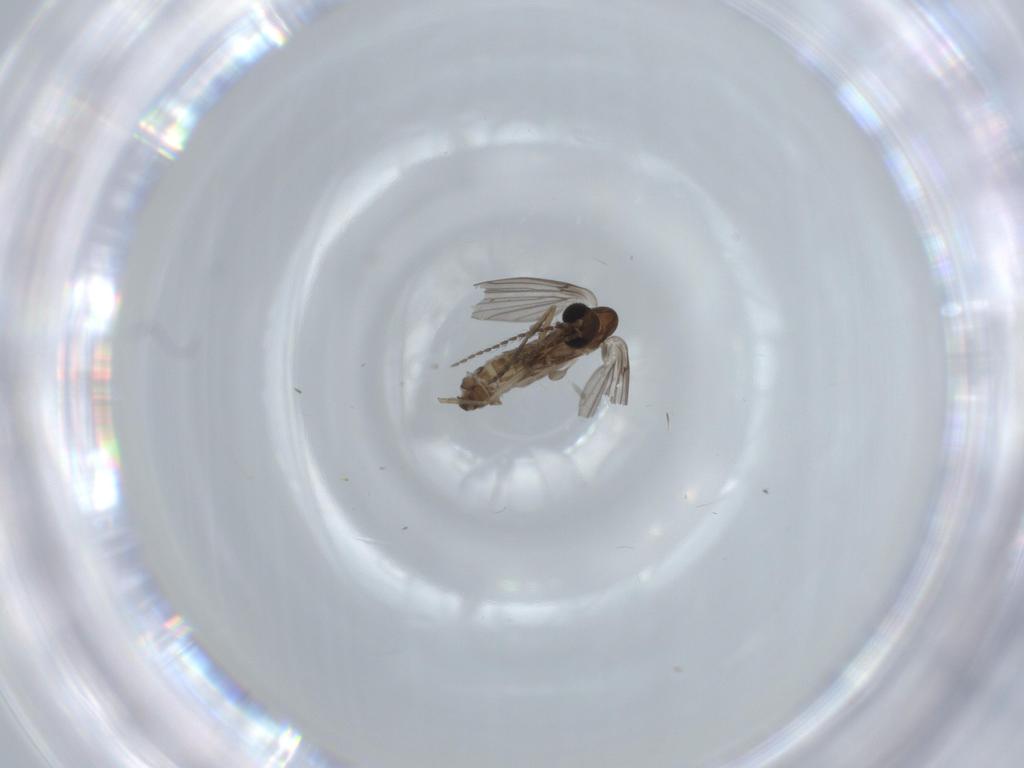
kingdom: Animalia
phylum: Arthropoda
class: Insecta
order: Diptera
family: Psychodidae
